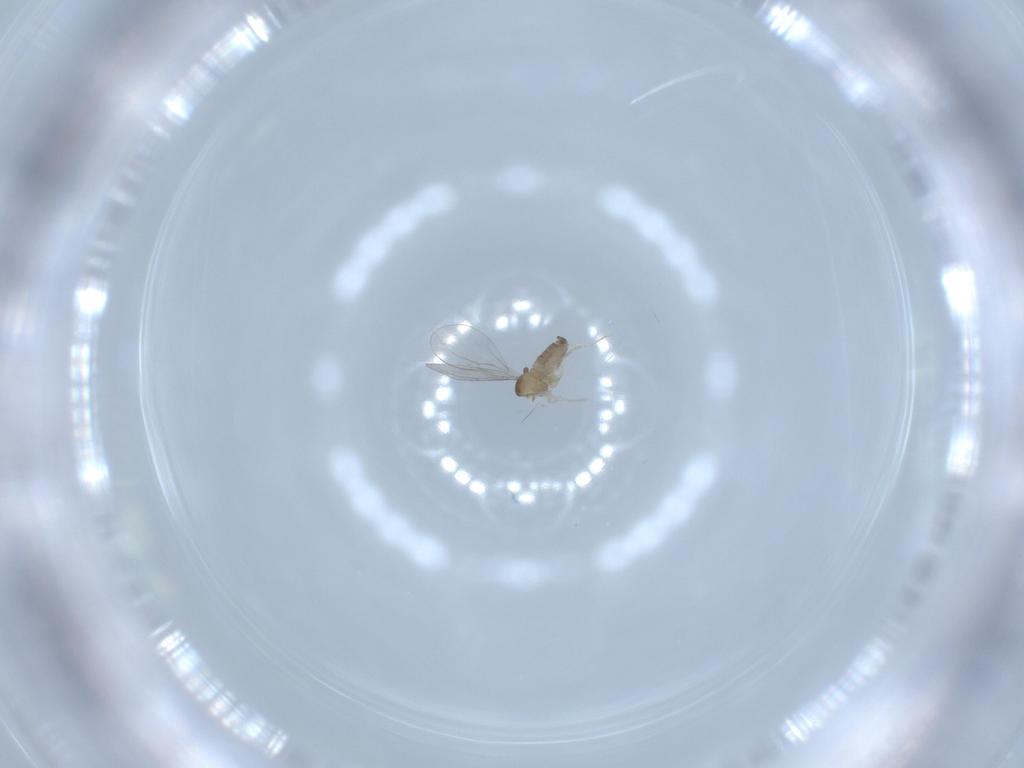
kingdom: Animalia
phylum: Arthropoda
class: Insecta
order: Diptera
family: Cecidomyiidae
